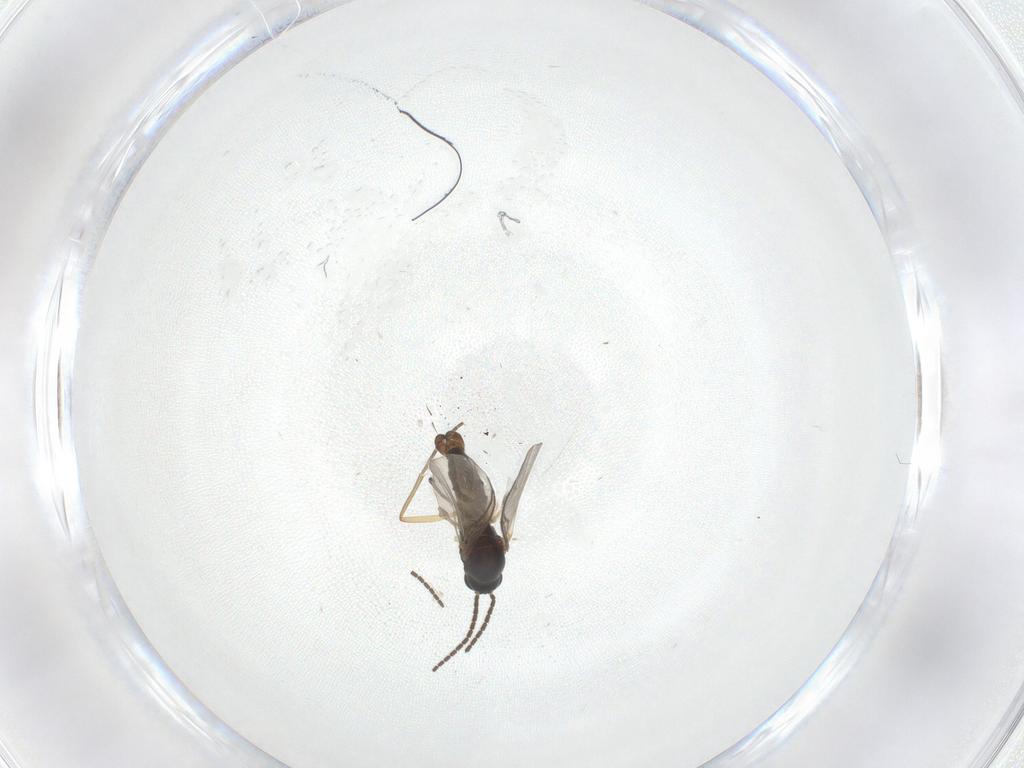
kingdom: Animalia
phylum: Arthropoda
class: Insecta
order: Diptera
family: Sciaridae
